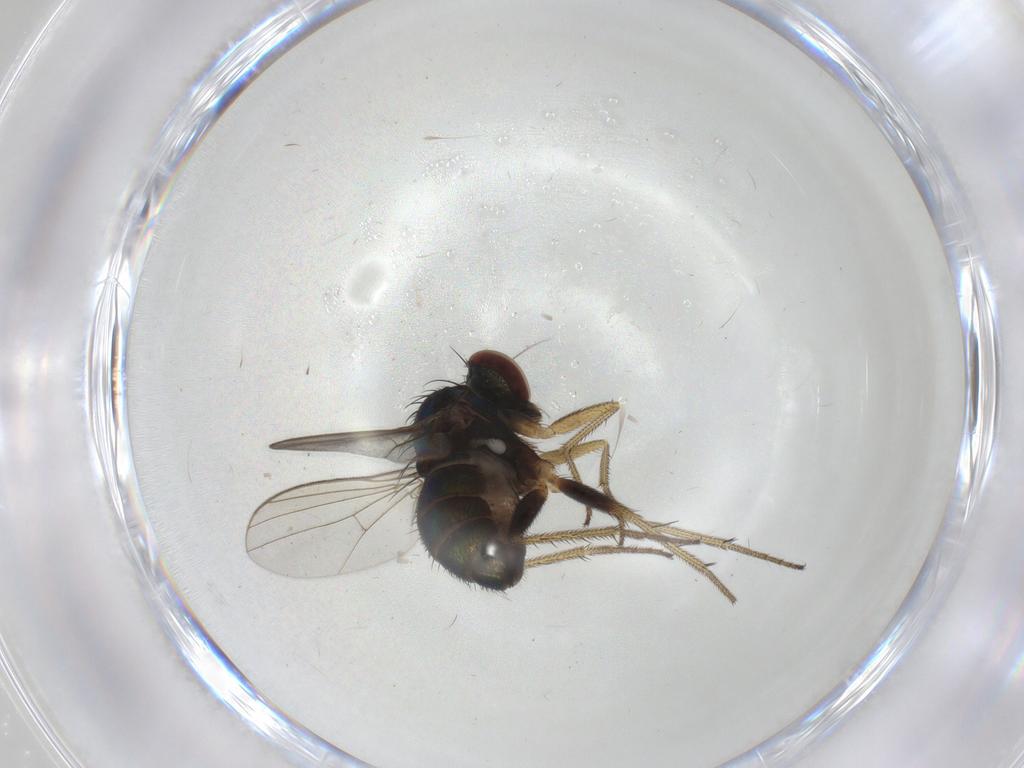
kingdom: Animalia
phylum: Arthropoda
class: Insecta
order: Diptera
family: Dolichopodidae
